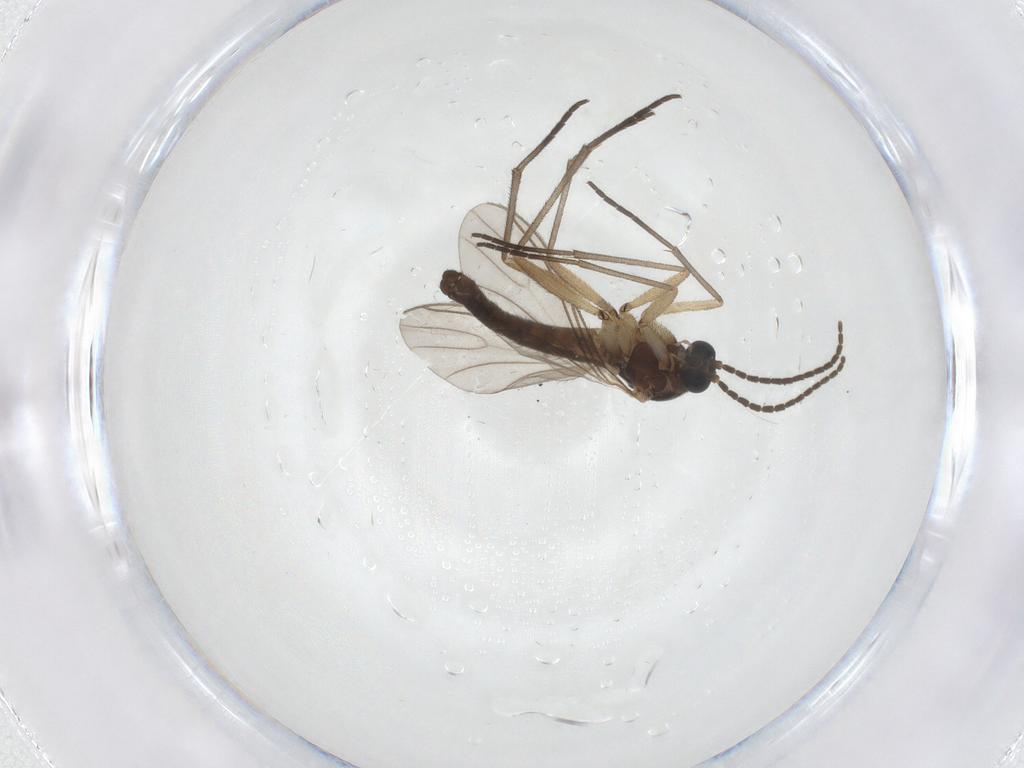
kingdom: Animalia
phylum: Arthropoda
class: Insecta
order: Diptera
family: Sciaridae
